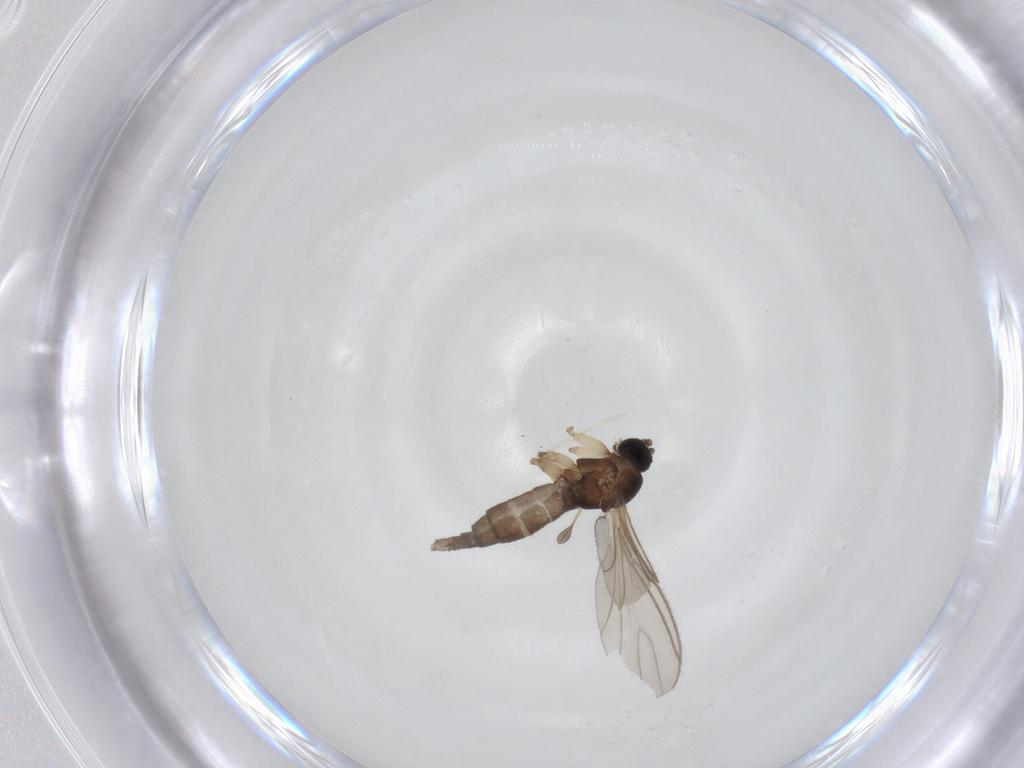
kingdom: Animalia
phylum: Arthropoda
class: Insecta
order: Diptera
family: Sciaridae
